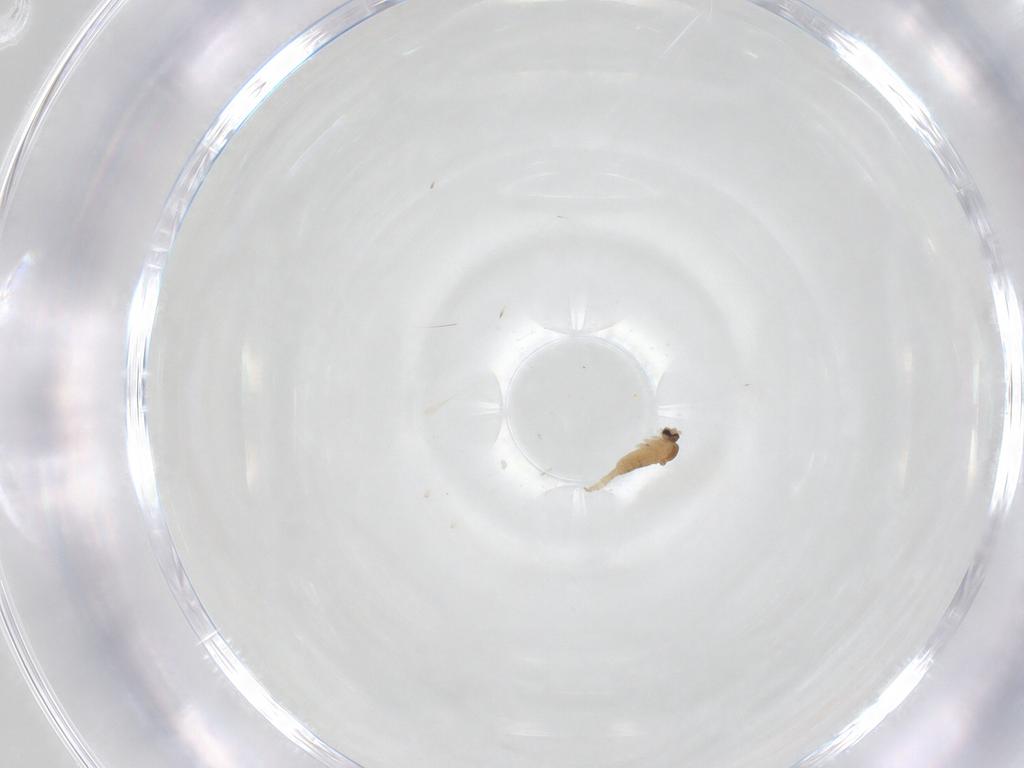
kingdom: Animalia
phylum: Arthropoda
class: Insecta
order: Diptera
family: Cecidomyiidae
